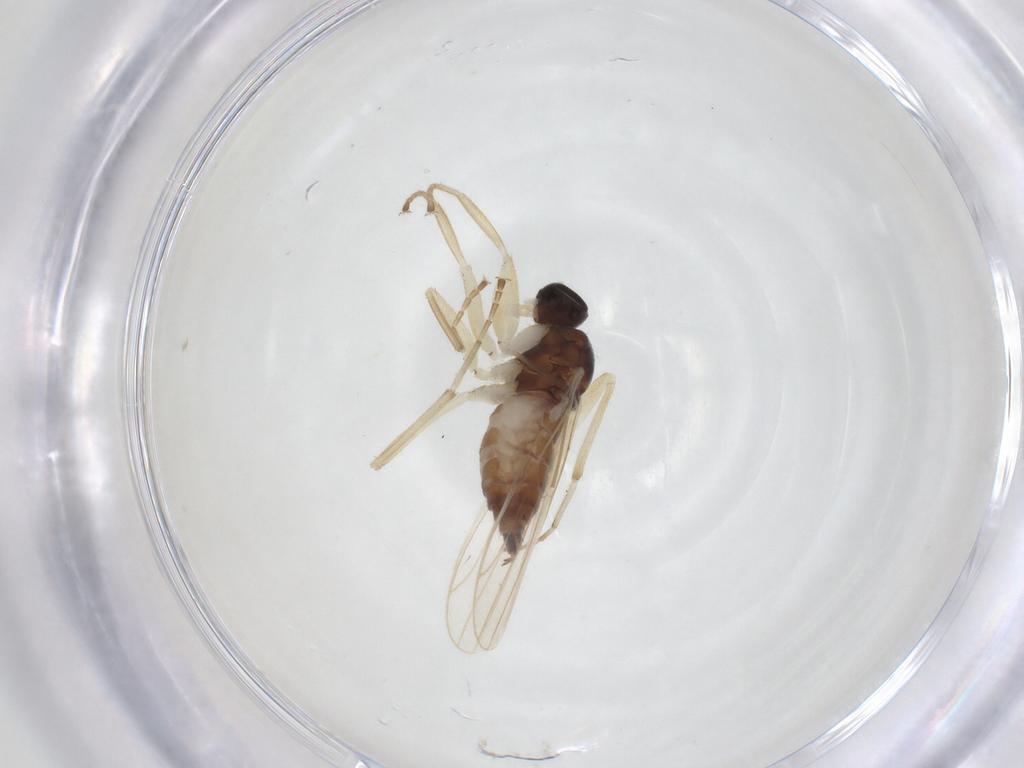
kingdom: Animalia
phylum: Arthropoda
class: Insecta
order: Diptera
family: Hybotidae
